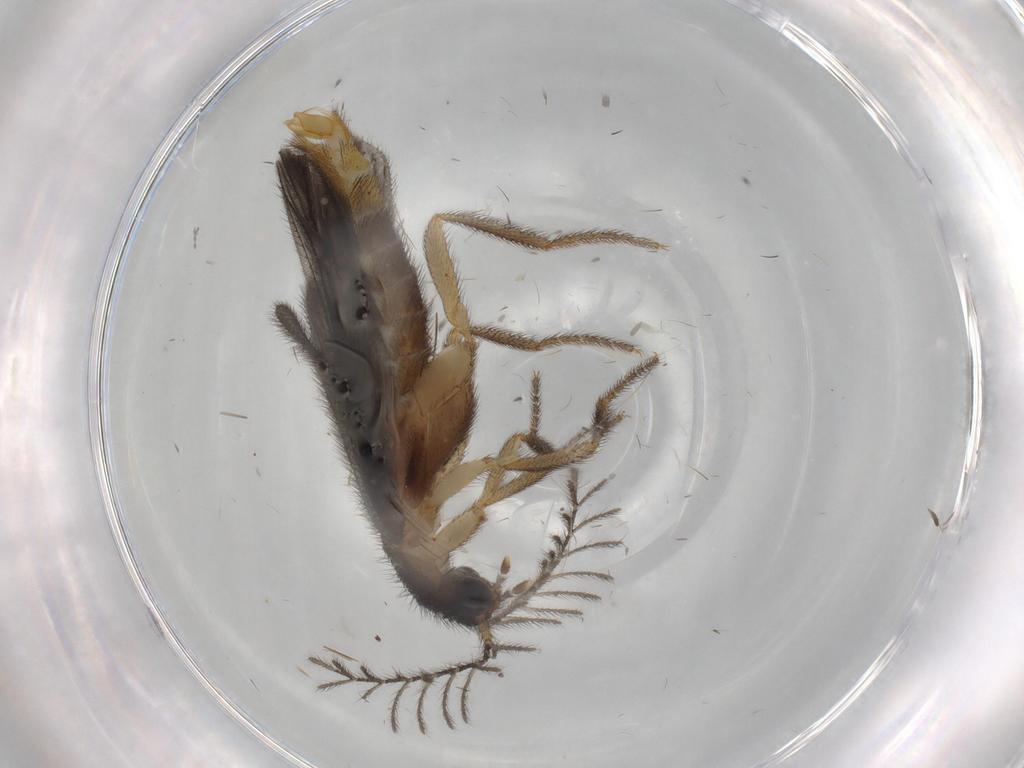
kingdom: Animalia
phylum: Arthropoda
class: Insecta
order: Coleoptera
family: Phengodidae
